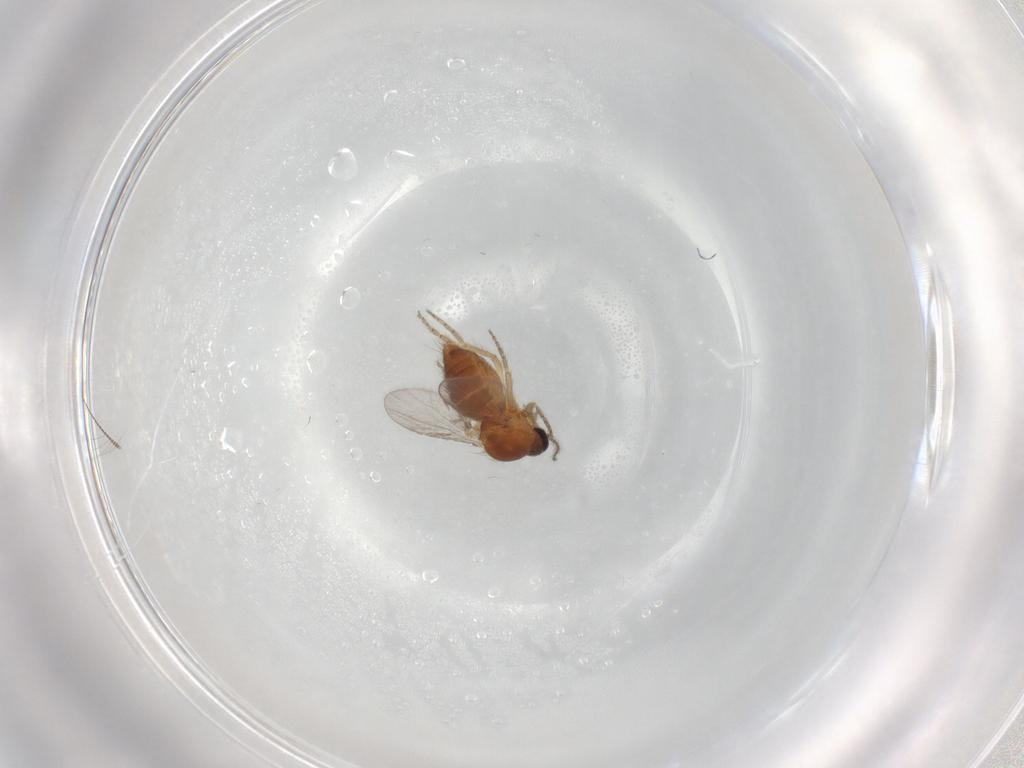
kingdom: Animalia
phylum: Arthropoda
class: Insecta
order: Diptera
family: Ceratopogonidae
